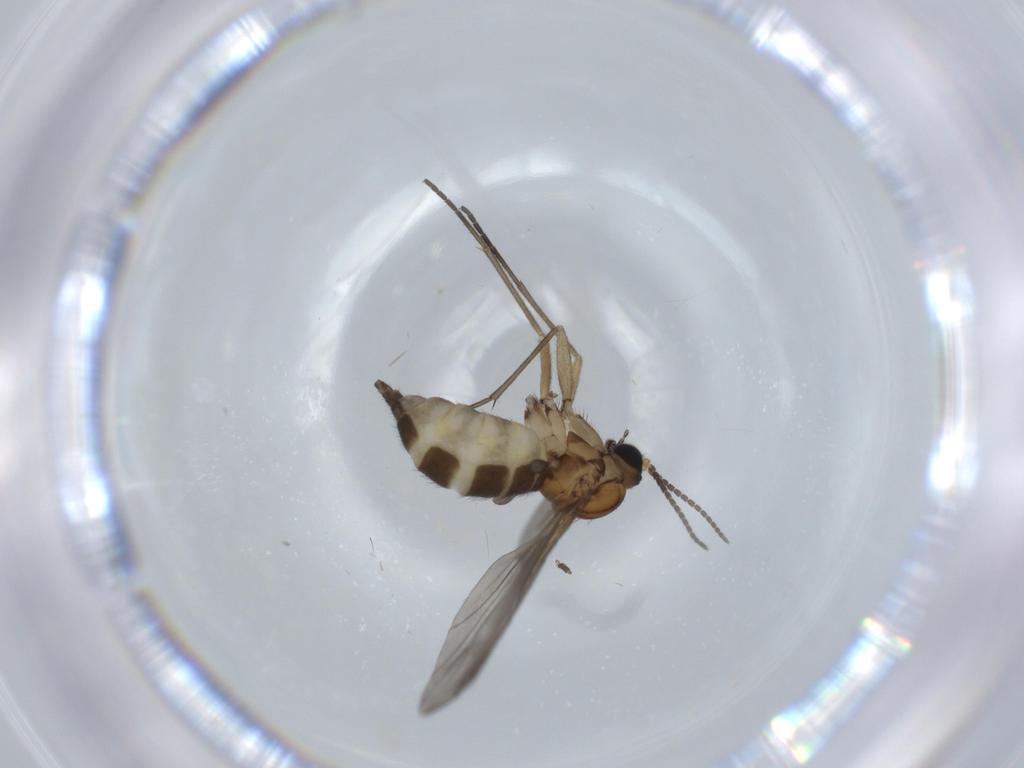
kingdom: Animalia
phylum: Arthropoda
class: Insecta
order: Diptera
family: Sciaridae
